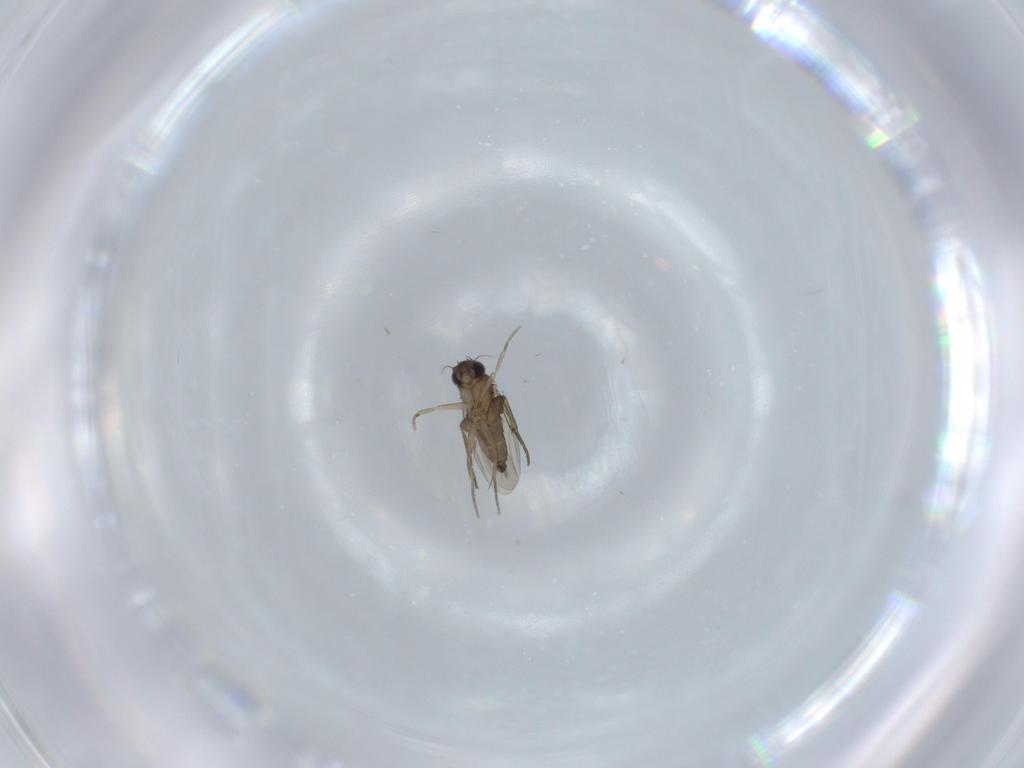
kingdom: Animalia
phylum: Arthropoda
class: Insecta
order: Diptera
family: Phoridae
